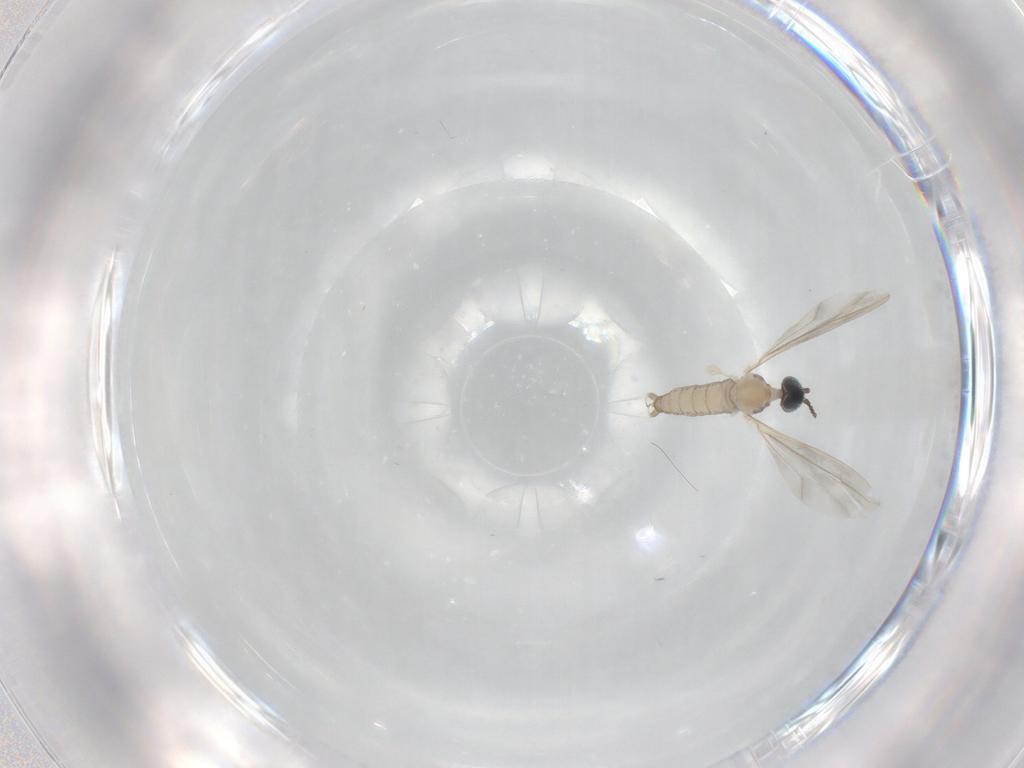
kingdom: Animalia
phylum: Arthropoda
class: Insecta
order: Diptera
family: Cecidomyiidae
